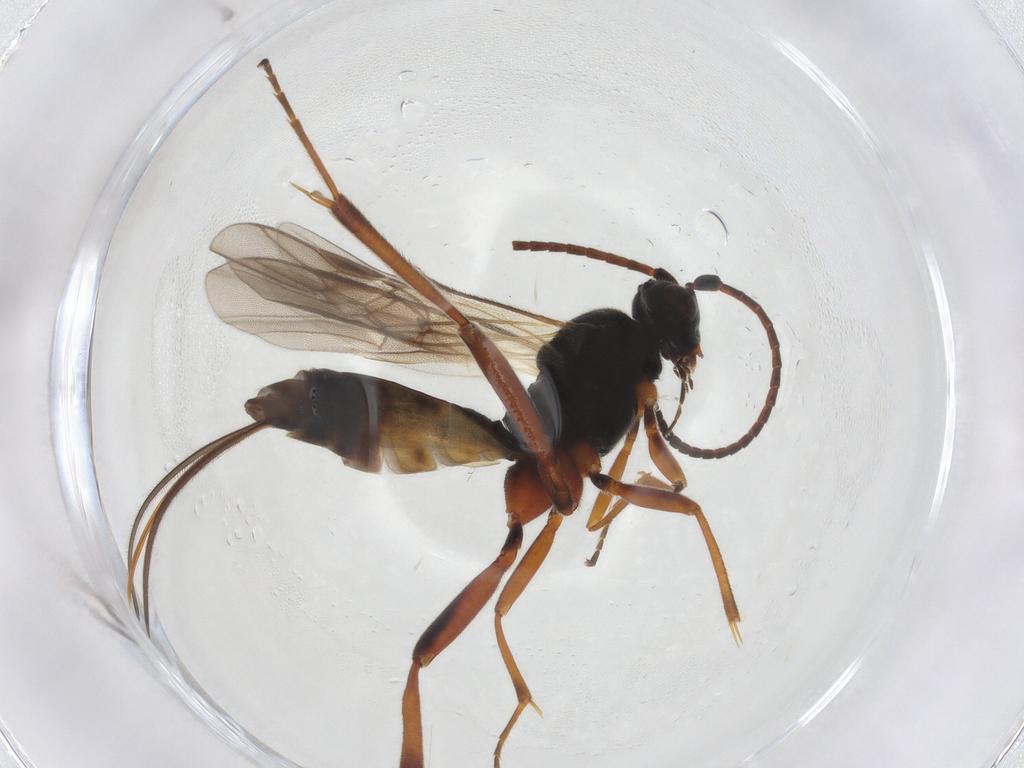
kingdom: Animalia
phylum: Arthropoda
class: Insecta
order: Hymenoptera
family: Braconidae
